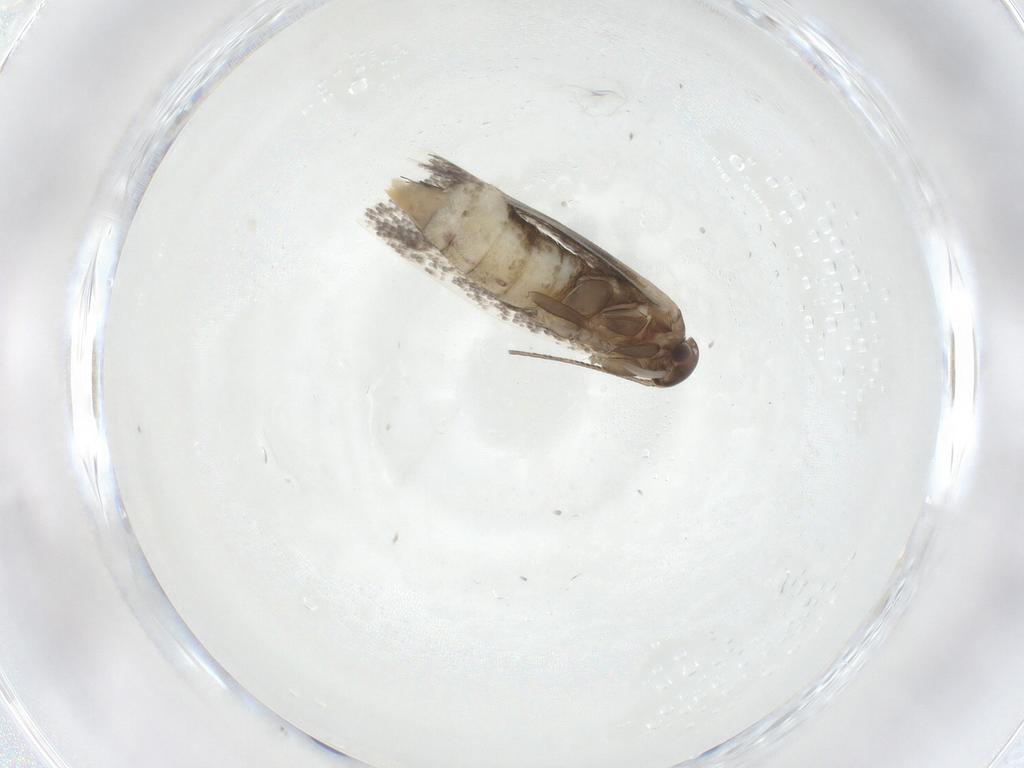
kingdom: Animalia
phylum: Arthropoda
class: Insecta
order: Lepidoptera
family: Elachistidae
